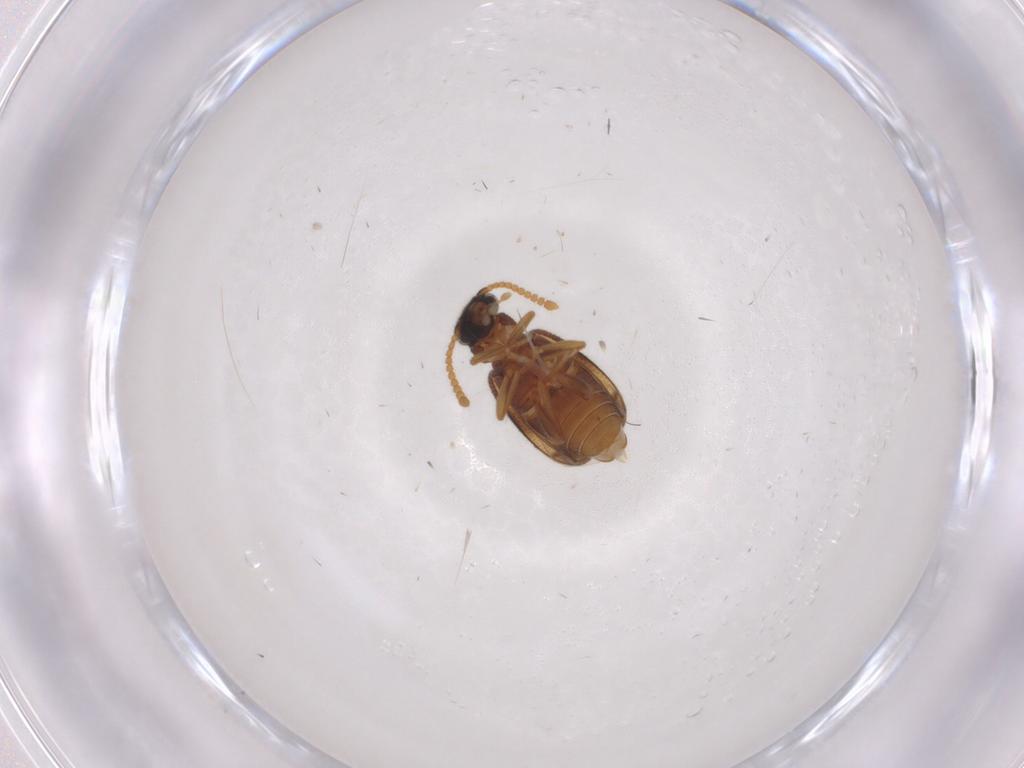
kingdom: Animalia
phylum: Arthropoda
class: Insecta
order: Coleoptera
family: Aderidae
